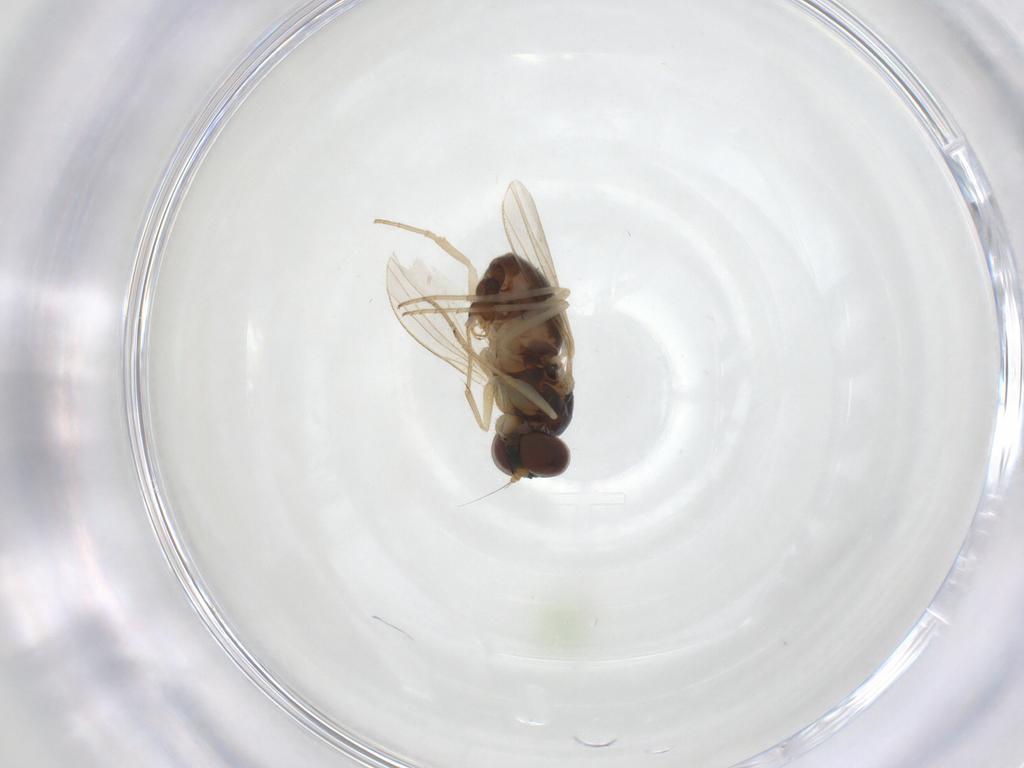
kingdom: Animalia
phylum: Arthropoda
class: Insecta
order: Diptera
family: Dolichopodidae
